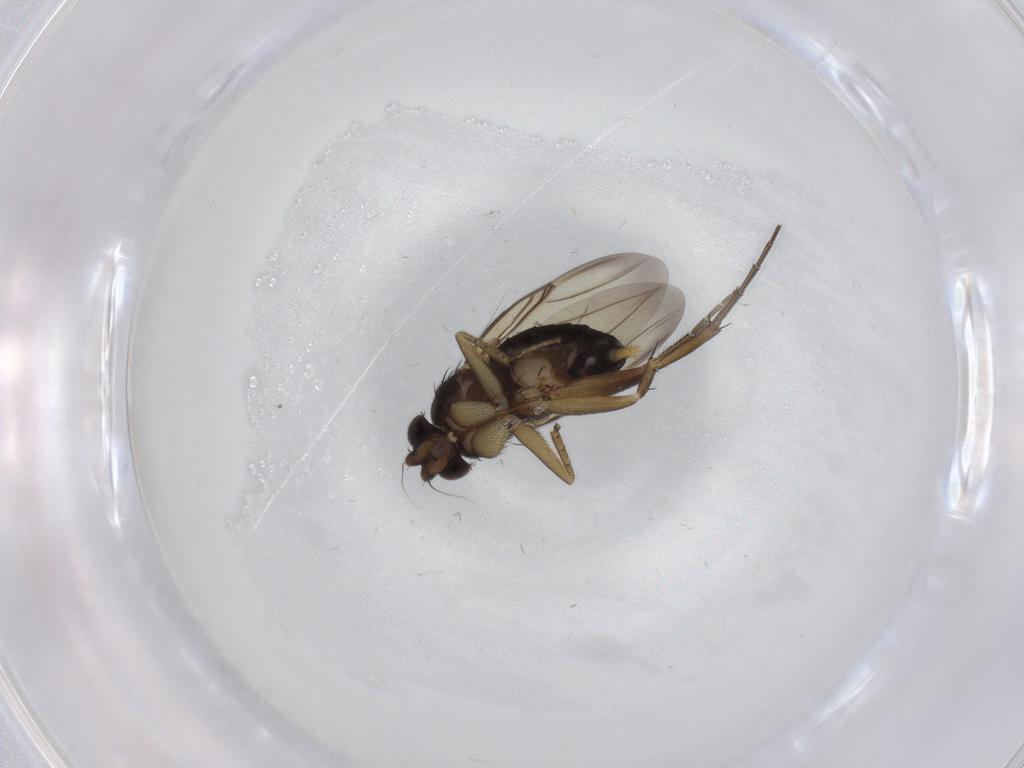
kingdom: Animalia
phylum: Arthropoda
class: Insecta
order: Diptera
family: Phoridae
